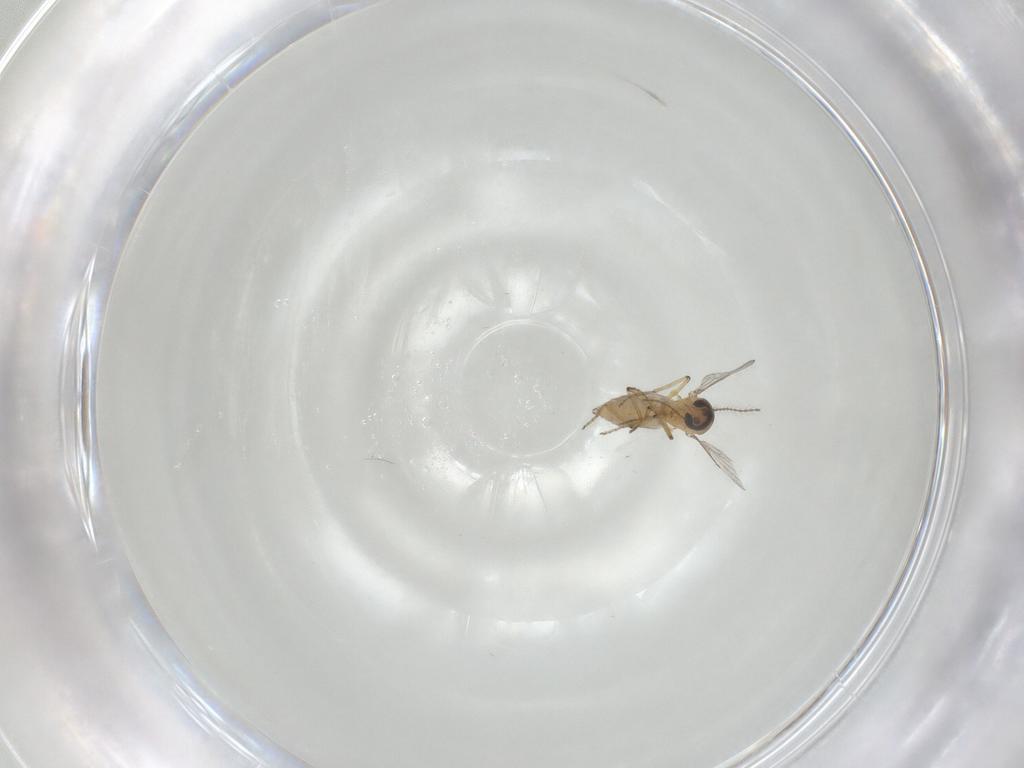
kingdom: Animalia
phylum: Arthropoda
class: Insecta
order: Diptera
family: Ceratopogonidae
